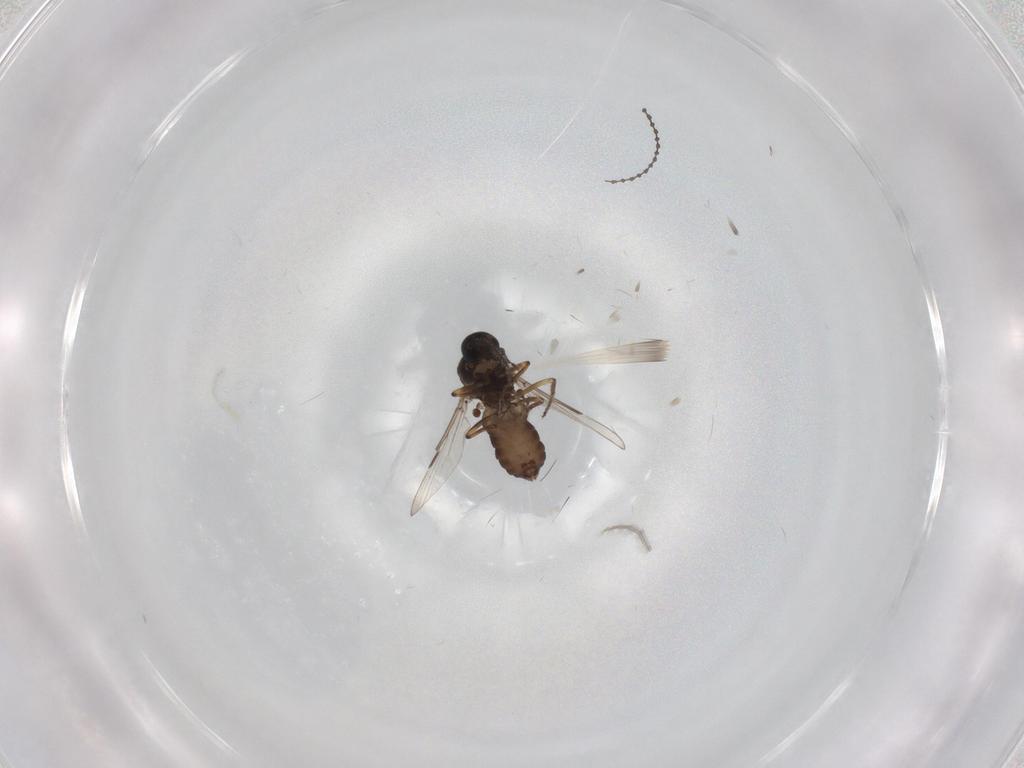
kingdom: Animalia
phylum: Arthropoda
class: Insecta
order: Diptera
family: Ceratopogonidae
